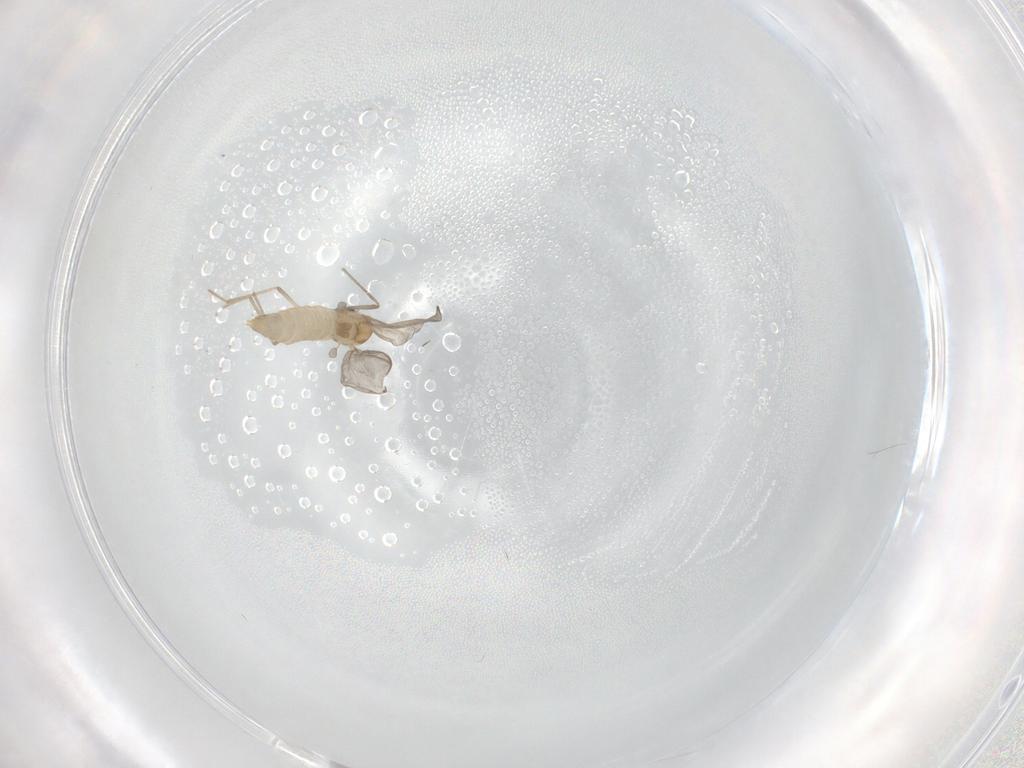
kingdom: Animalia
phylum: Arthropoda
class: Insecta
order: Diptera
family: Chironomidae
